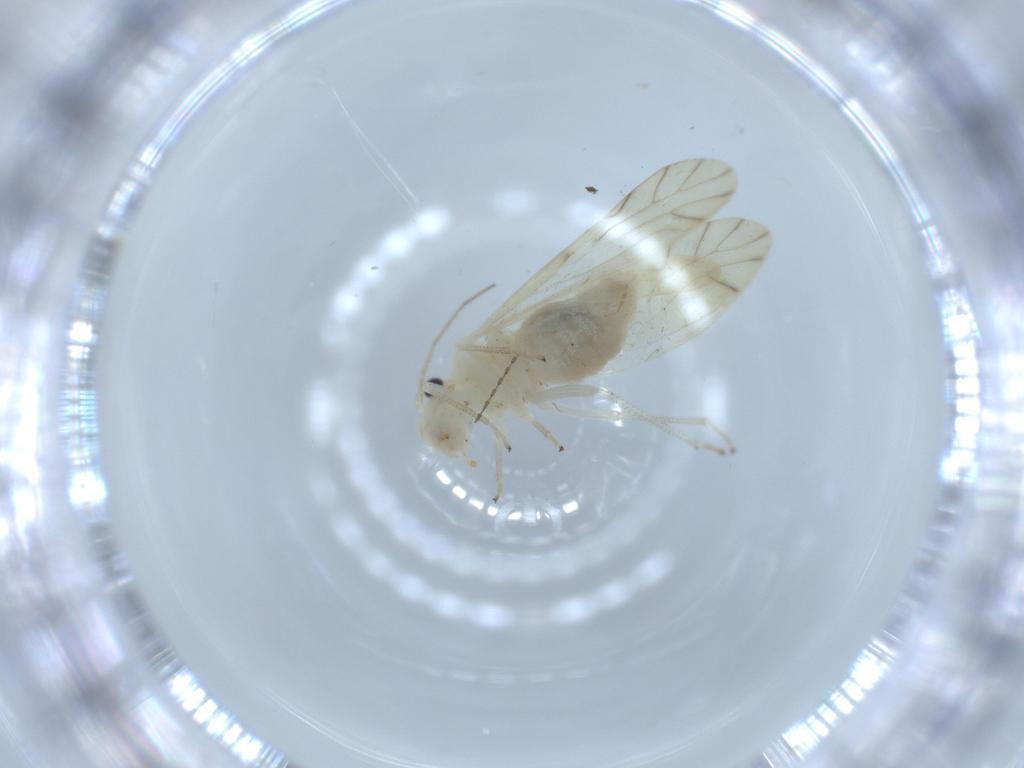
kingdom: Animalia
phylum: Arthropoda
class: Insecta
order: Psocodea
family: Caeciliusidae
